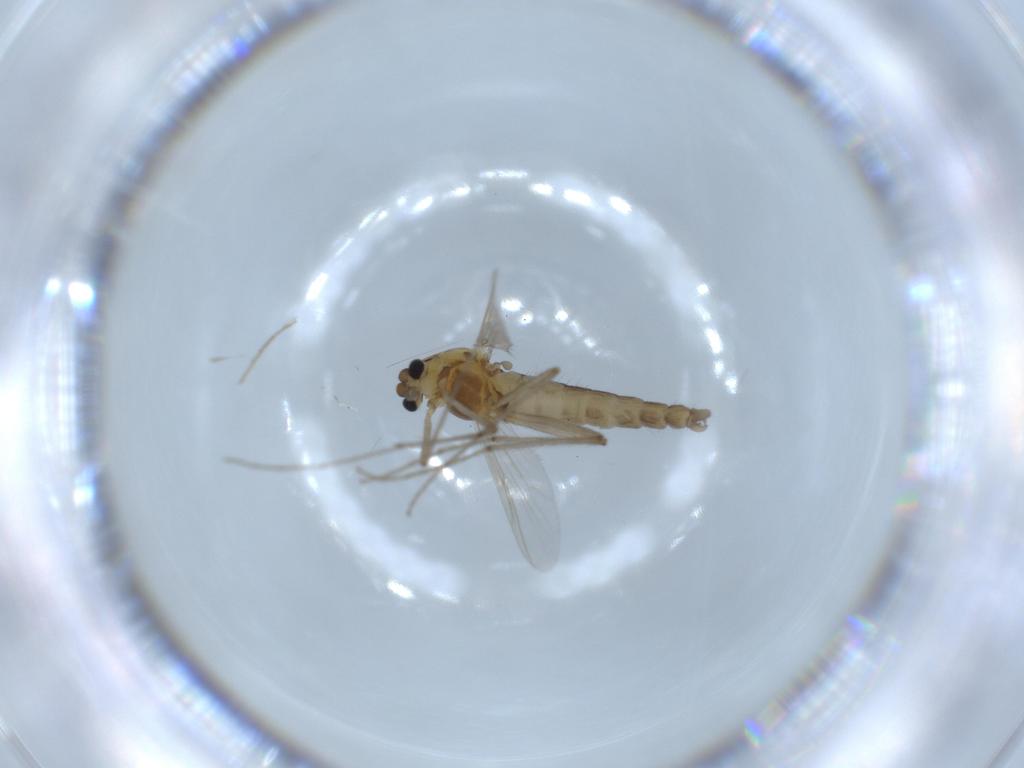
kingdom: Animalia
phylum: Arthropoda
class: Insecta
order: Diptera
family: Chironomidae
